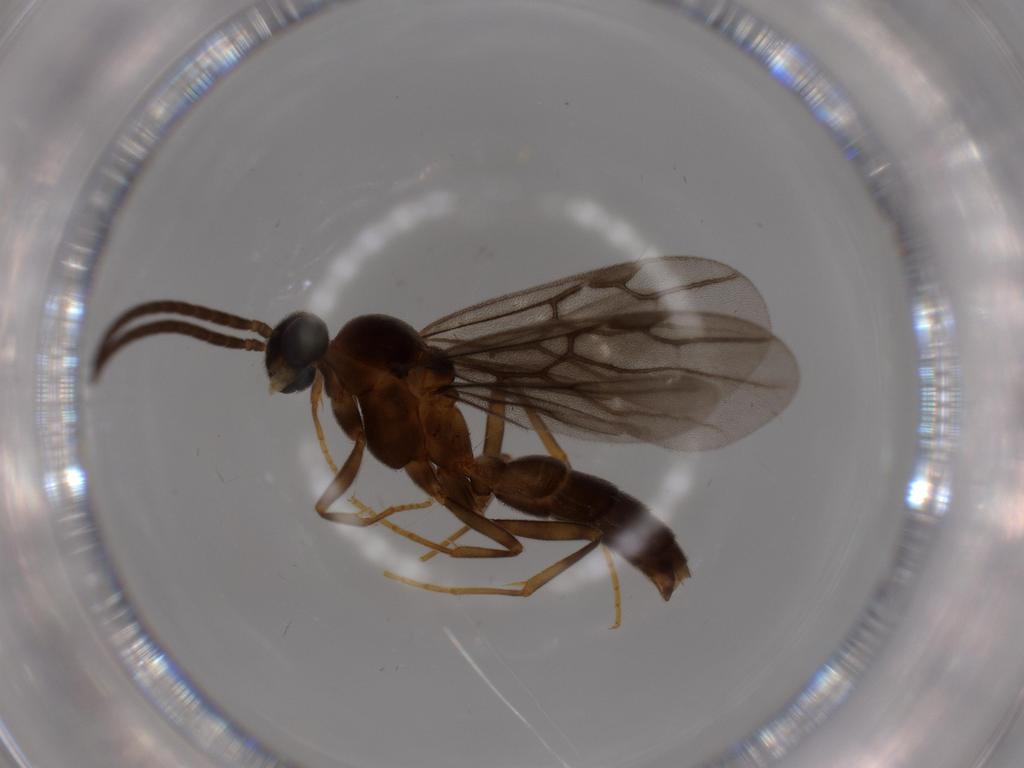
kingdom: Animalia
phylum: Arthropoda
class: Insecta
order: Hymenoptera
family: Formicidae
